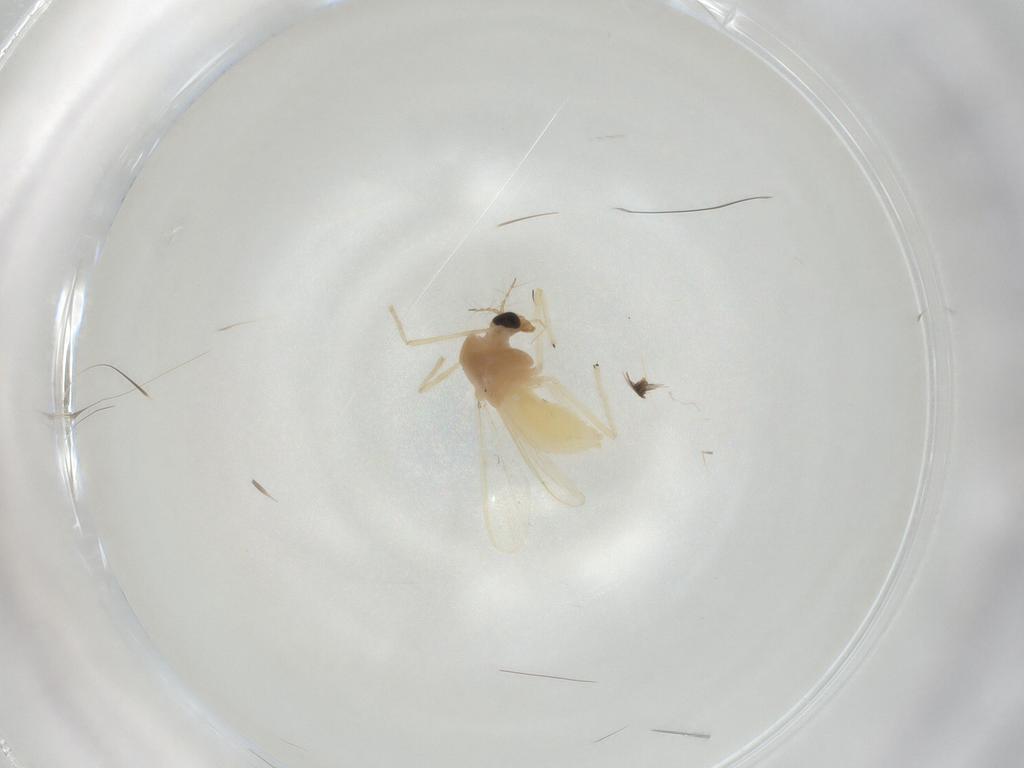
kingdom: Animalia
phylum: Arthropoda
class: Insecta
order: Diptera
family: Chironomidae
